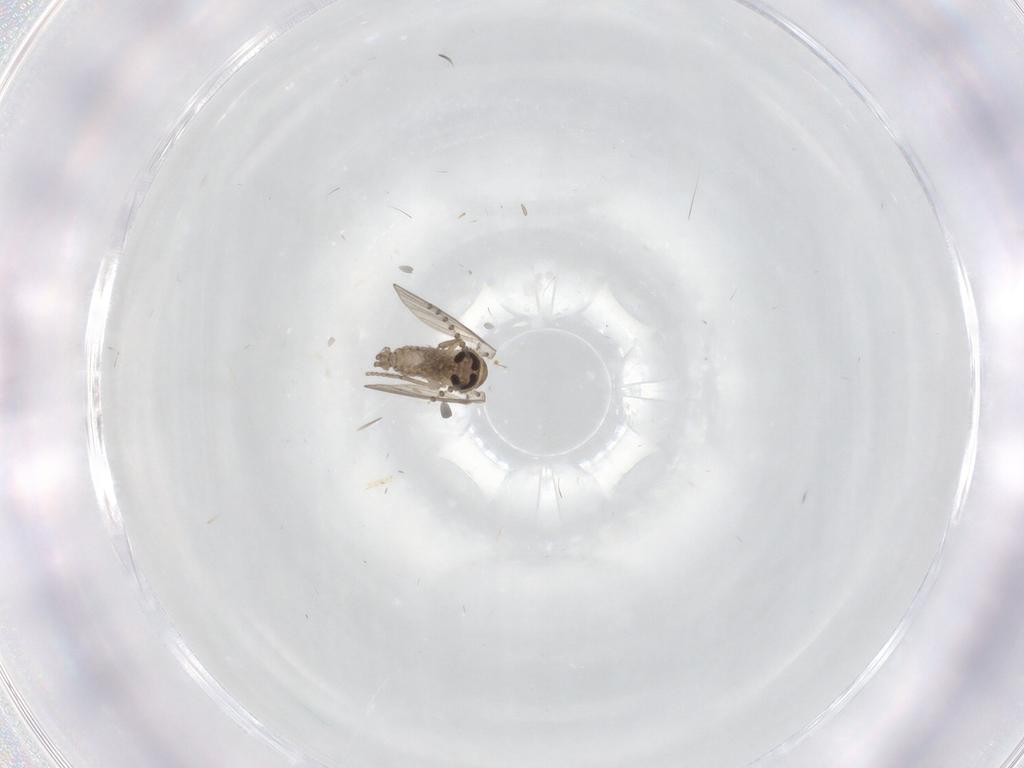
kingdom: Animalia
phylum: Arthropoda
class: Insecta
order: Diptera
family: Cecidomyiidae
